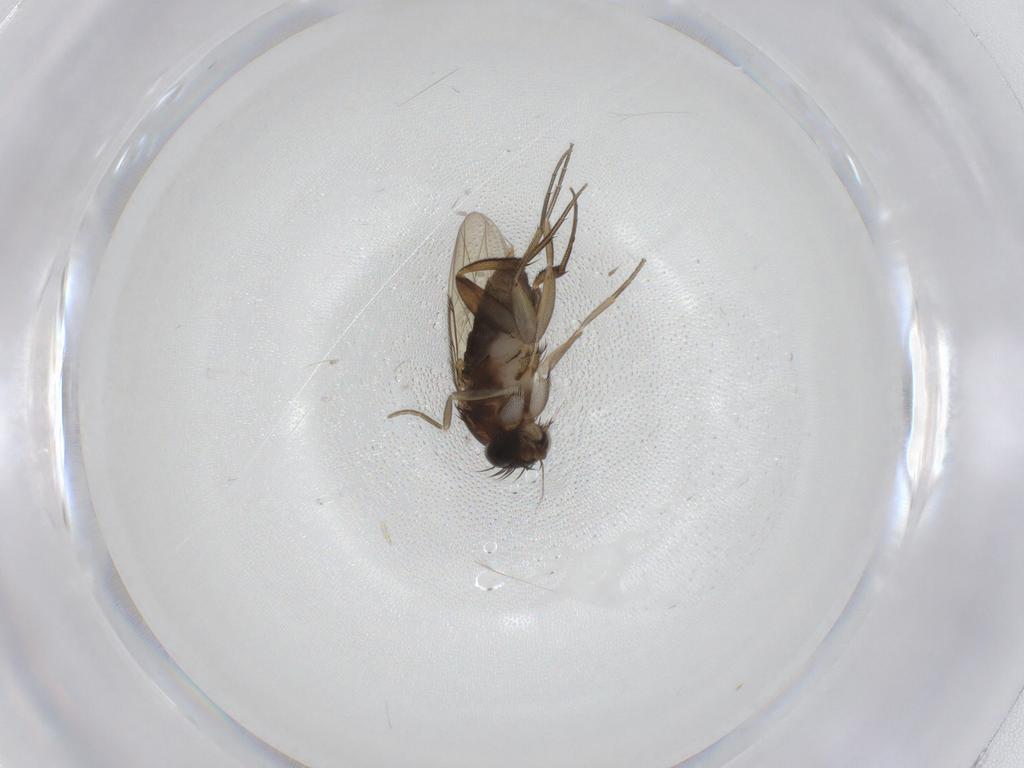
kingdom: Animalia
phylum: Arthropoda
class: Insecta
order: Diptera
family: Phoridae
